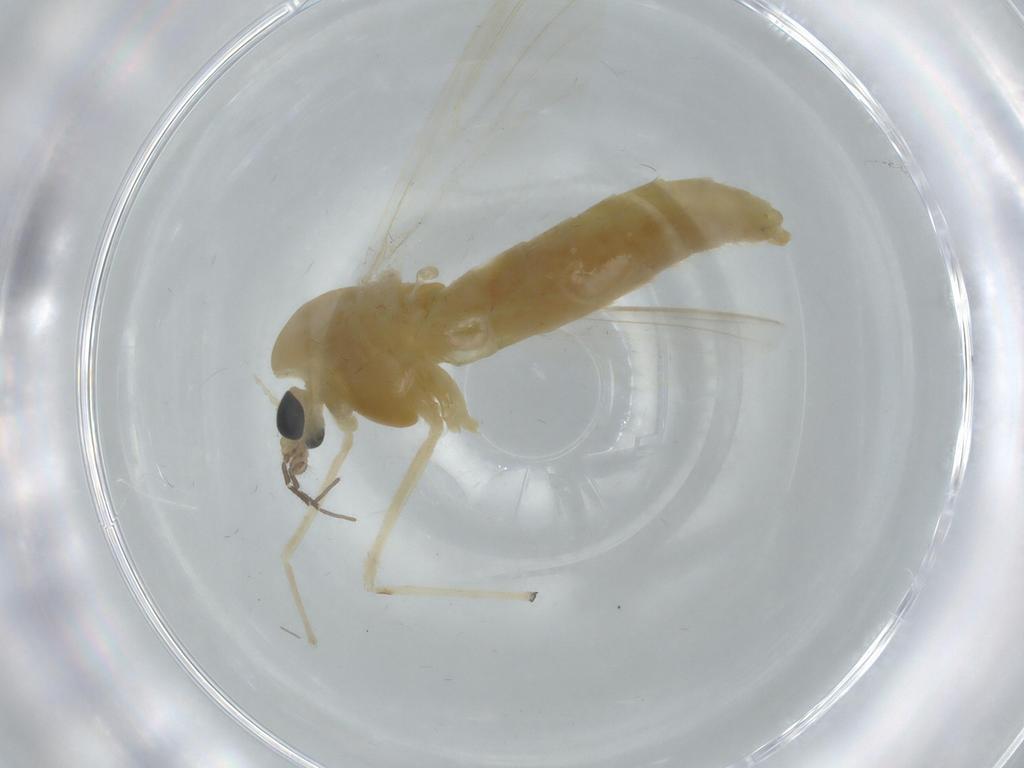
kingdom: Animalia
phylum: Arthropoda
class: Insecta
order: Diptera
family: Chironomidae
